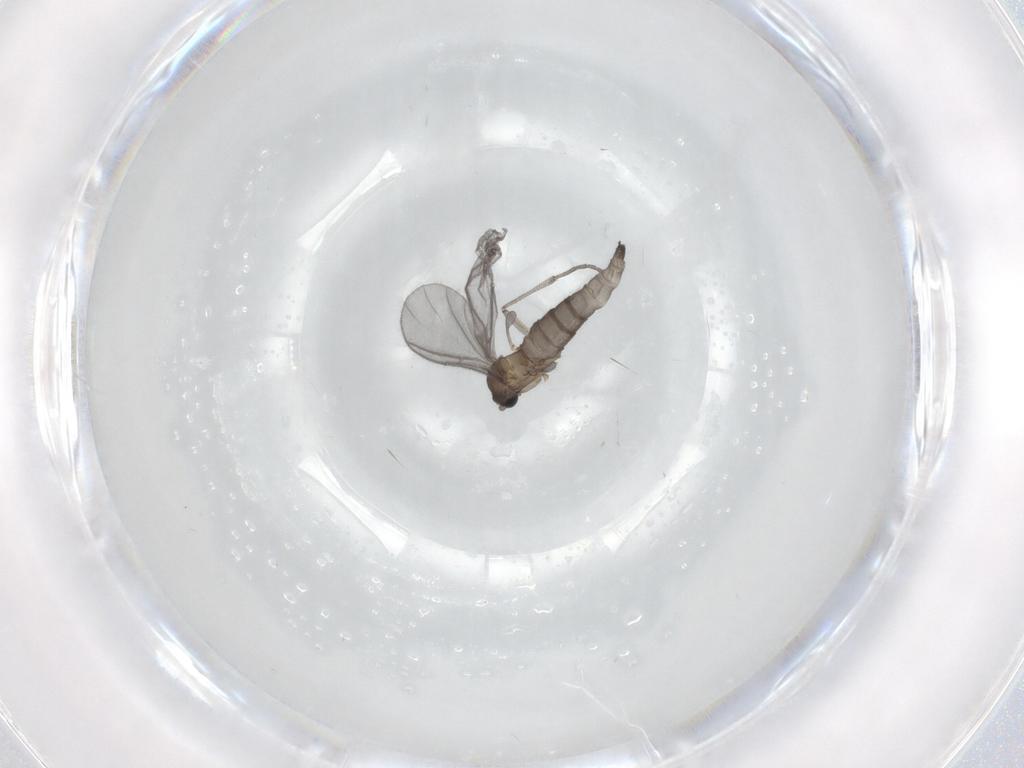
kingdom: Animalia
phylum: Arthropoda
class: Insecta
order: Diptera
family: Sciaridae
